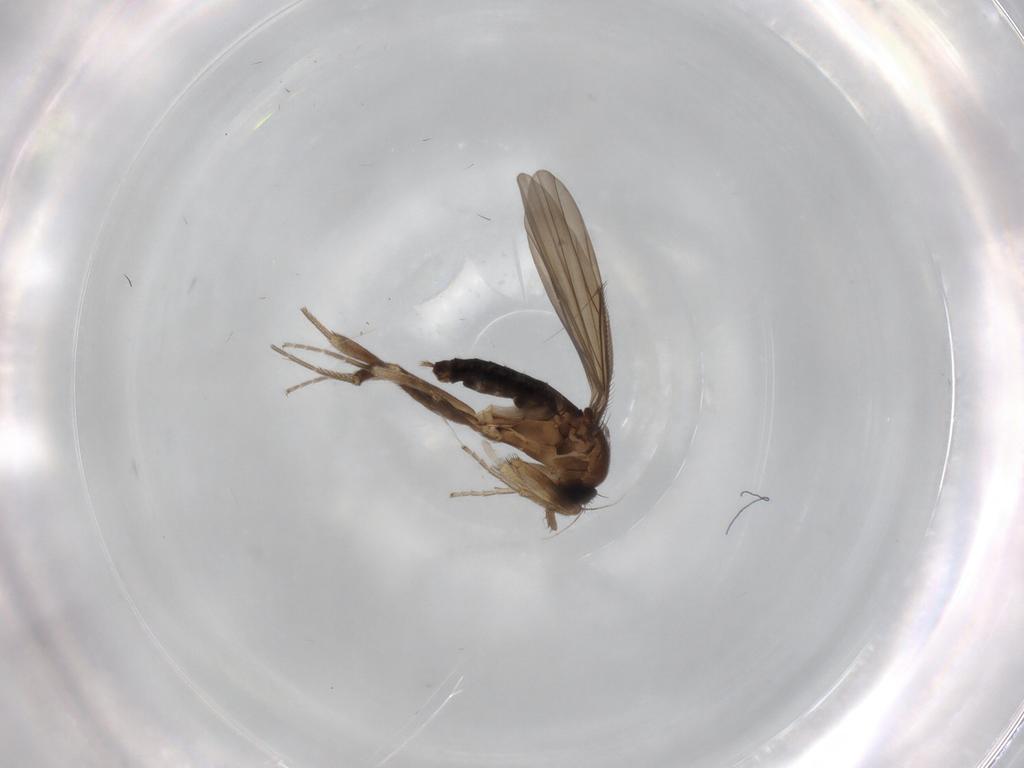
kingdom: Animalia
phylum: Arthropoda
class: Insecta
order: Diptera
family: Phoridae
